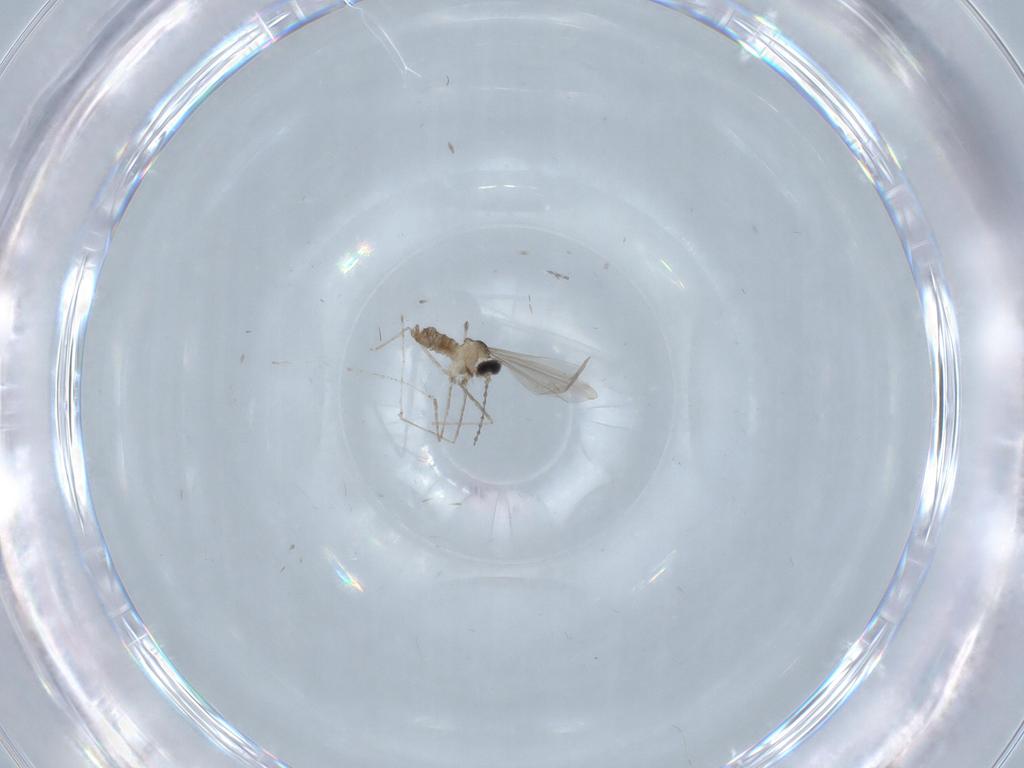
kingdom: Animalia
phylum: Arthropoda
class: Insecta
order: Diptera
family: Cecidomyiidae
